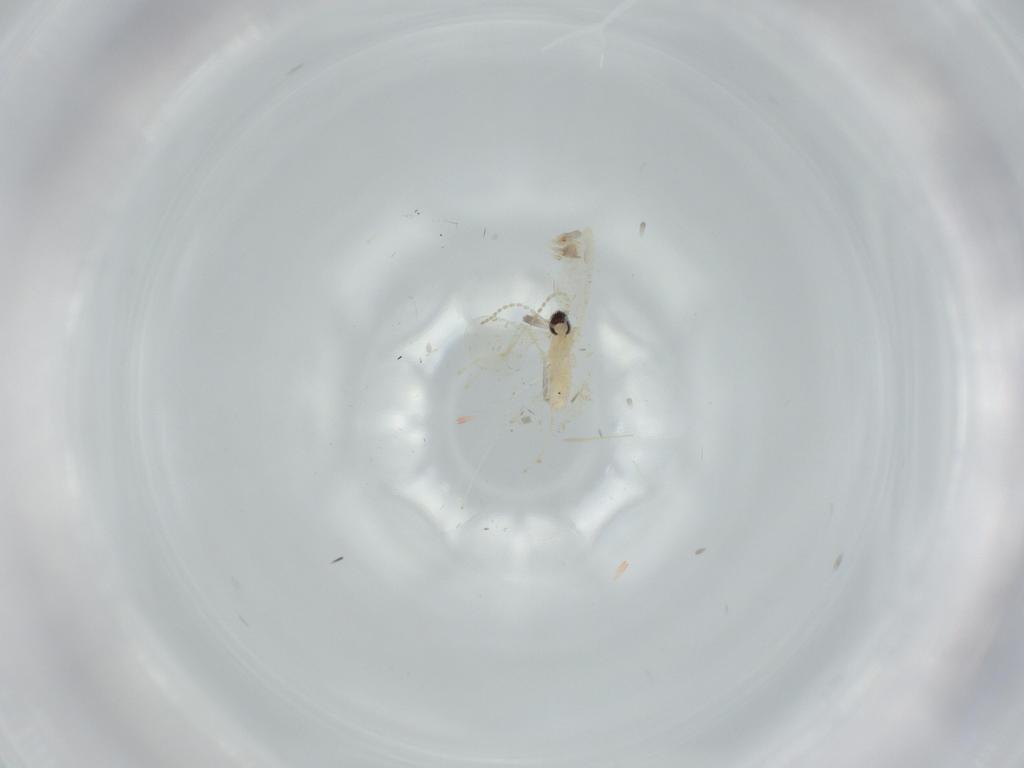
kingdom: Animalia
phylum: Arthropoda
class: Insecta
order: Diptera
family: Cecidomyiidae
